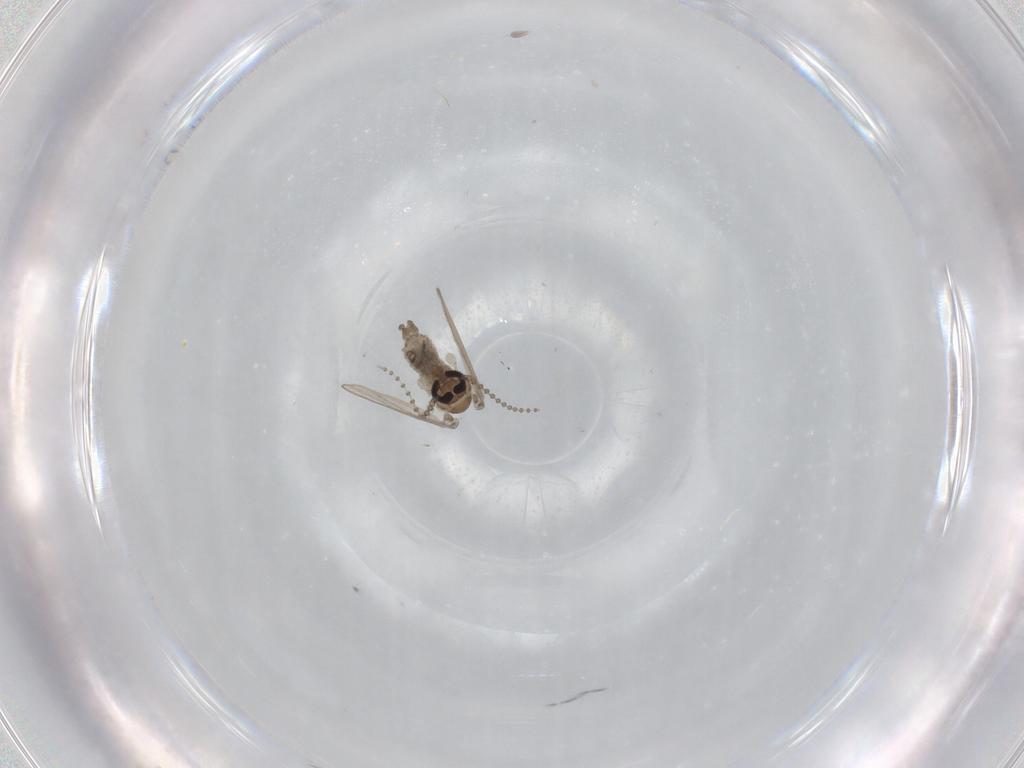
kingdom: Animalia
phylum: Arthropoda
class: Insecta
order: Diptera
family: Psychodidae
